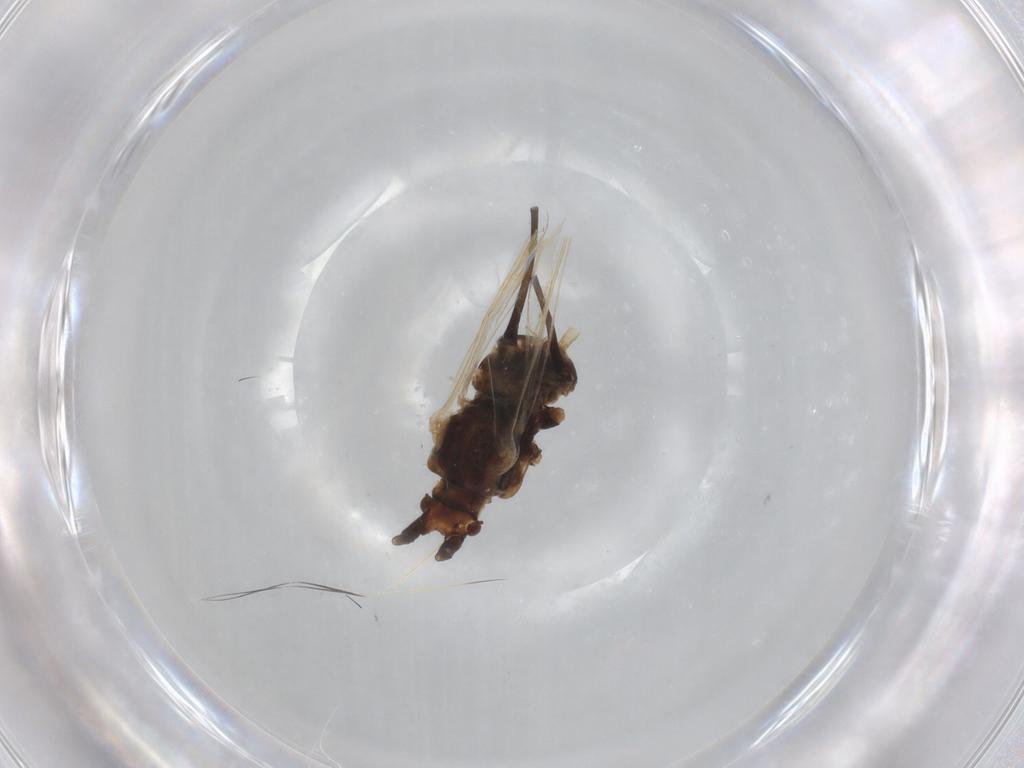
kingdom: Animalia
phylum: Arthropoda
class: Insecta
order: Hemiptera
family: Aphididae
